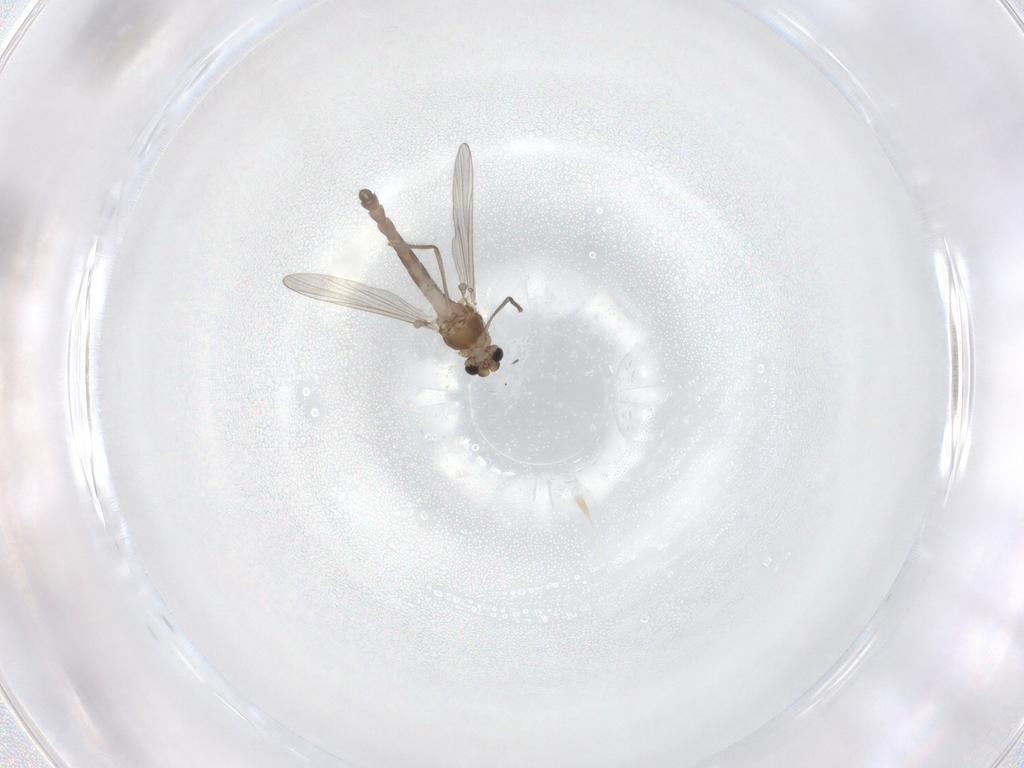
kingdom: Animalia
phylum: Arthropoda
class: Insecta
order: Diptera
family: Chironomidae
